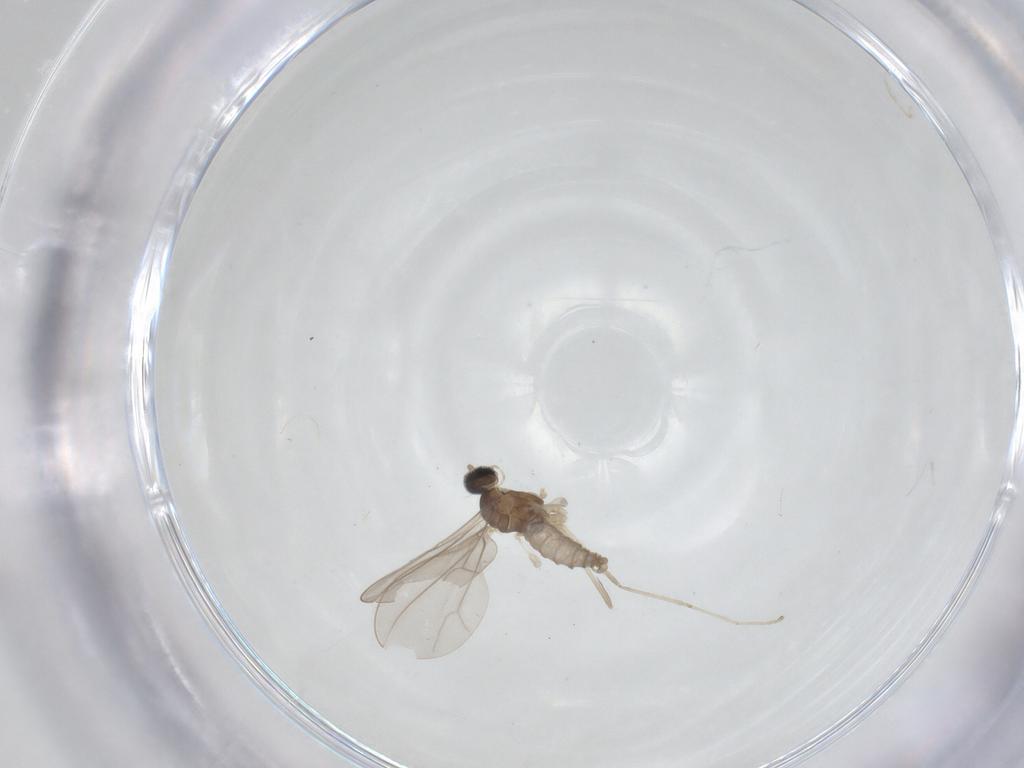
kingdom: Animalia
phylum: Arthropoda
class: Insecta
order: Diptera
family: Cecidomyiidae
